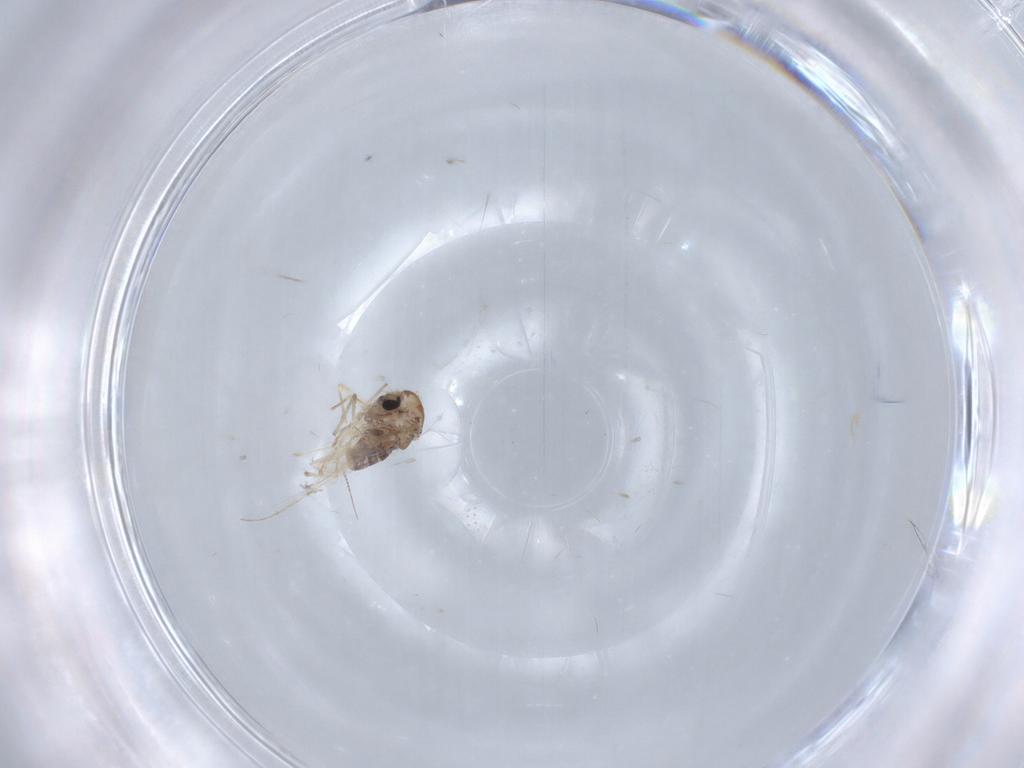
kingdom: Animalia
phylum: Arthropoda
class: Insecta
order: Diptera
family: Chironomidae
